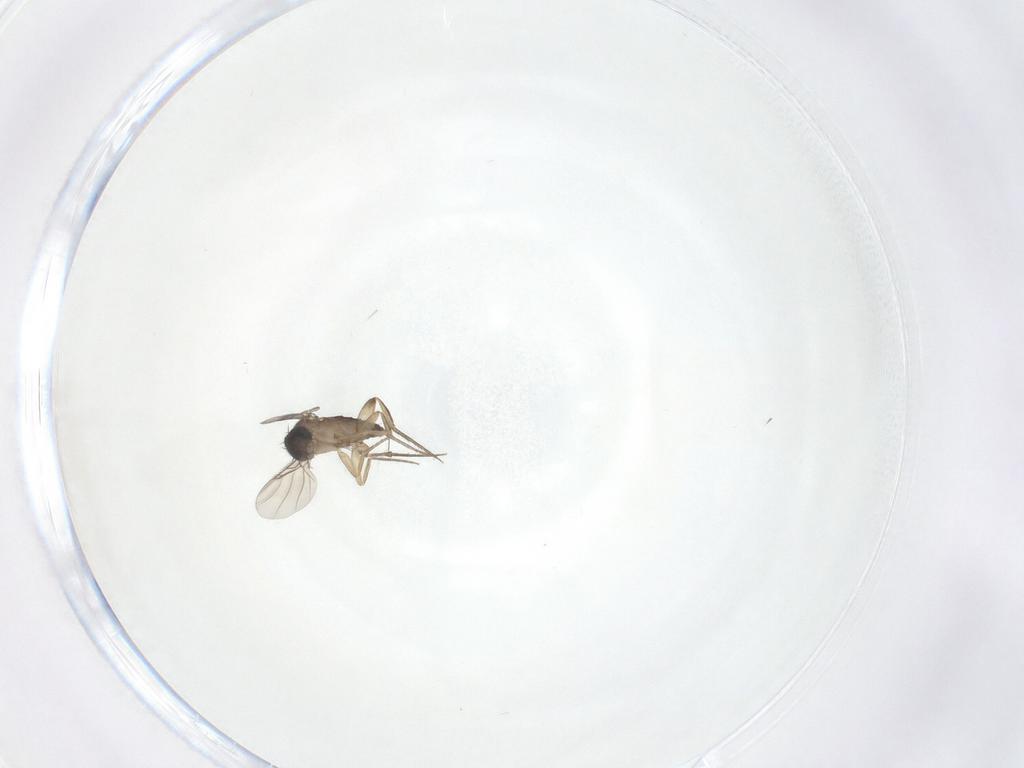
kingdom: Animalia
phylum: Arthropoda
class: Insecta
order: Diptera
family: Phoridae
